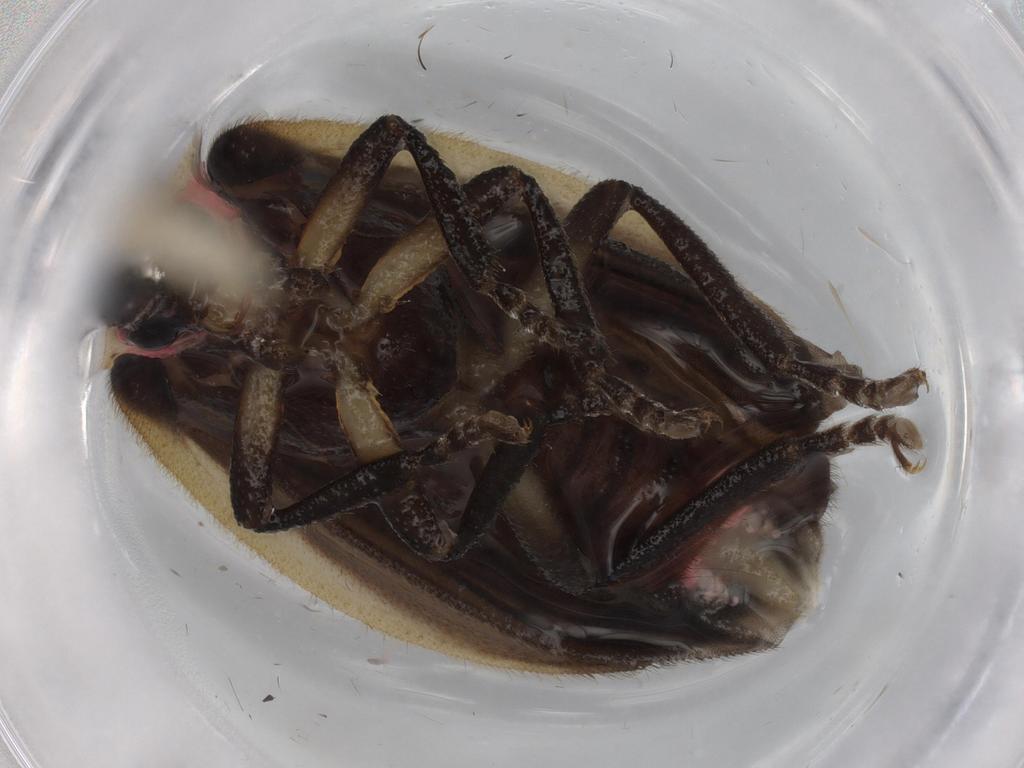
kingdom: Animalia
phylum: Arthropoda
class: Insecta
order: Coleoptera
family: Lampyridae
